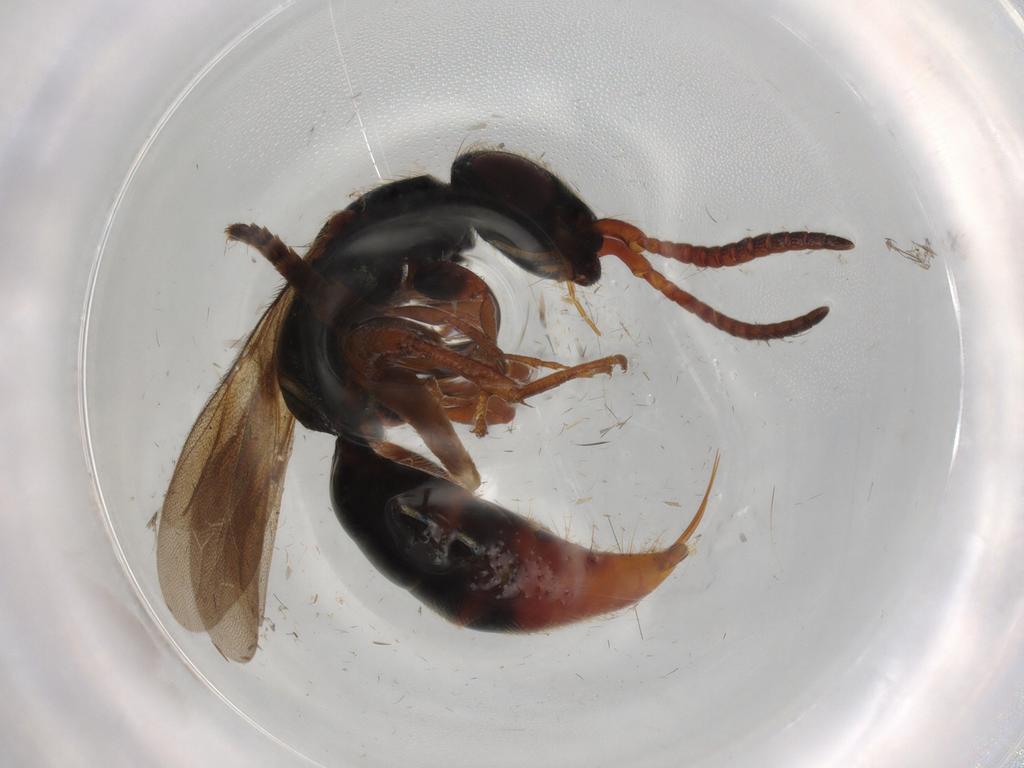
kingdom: Animalia
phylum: Arthropoda
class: Insecta
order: Hymenoptera
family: Bethylidae
